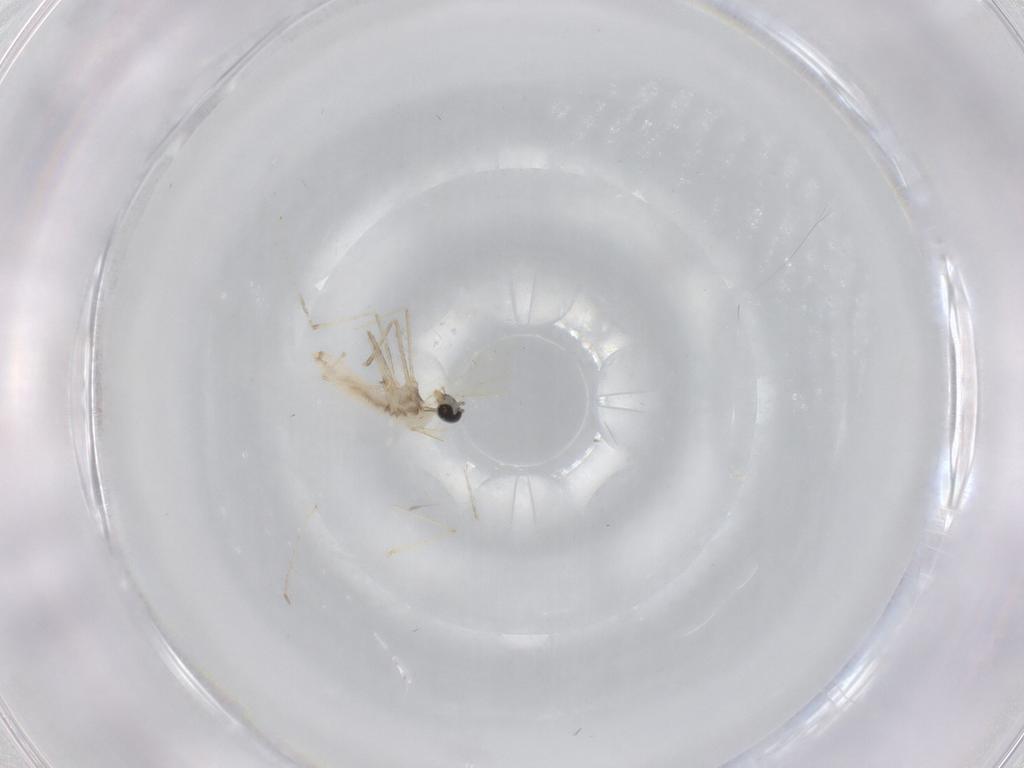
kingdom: Animalia
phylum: Arthropoda
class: Insecta
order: Diptera
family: Cecidomyiidae
